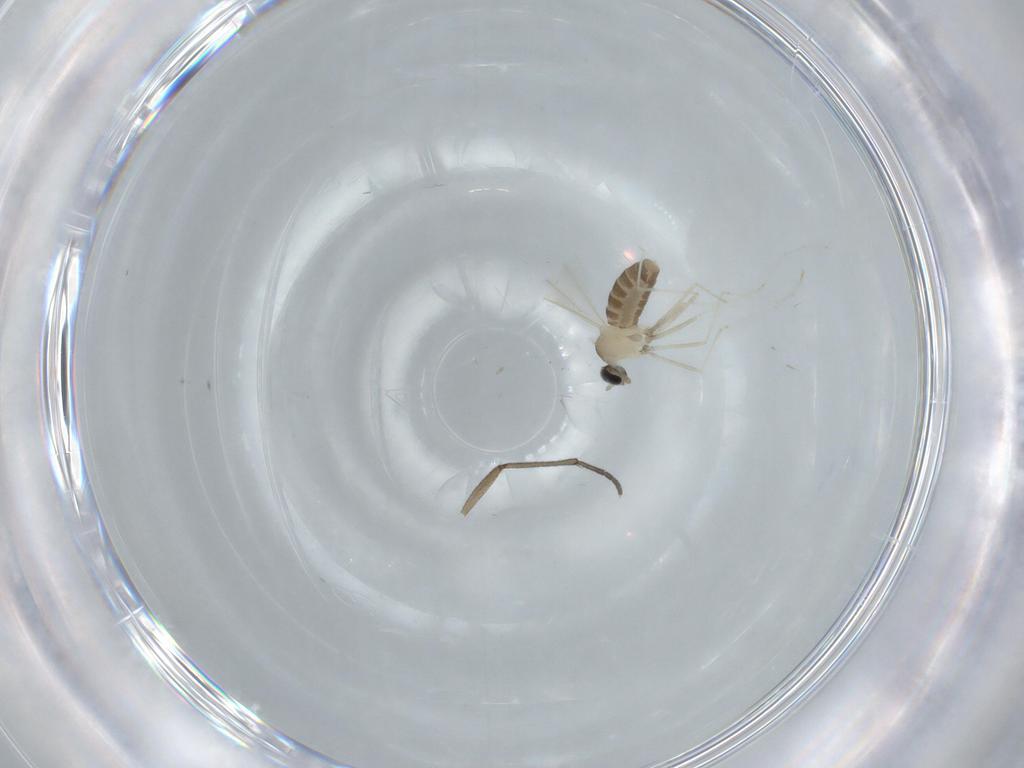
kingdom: Animalia
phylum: Arthropoda
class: Insecta
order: Diptera
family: Cecidomyiidae
